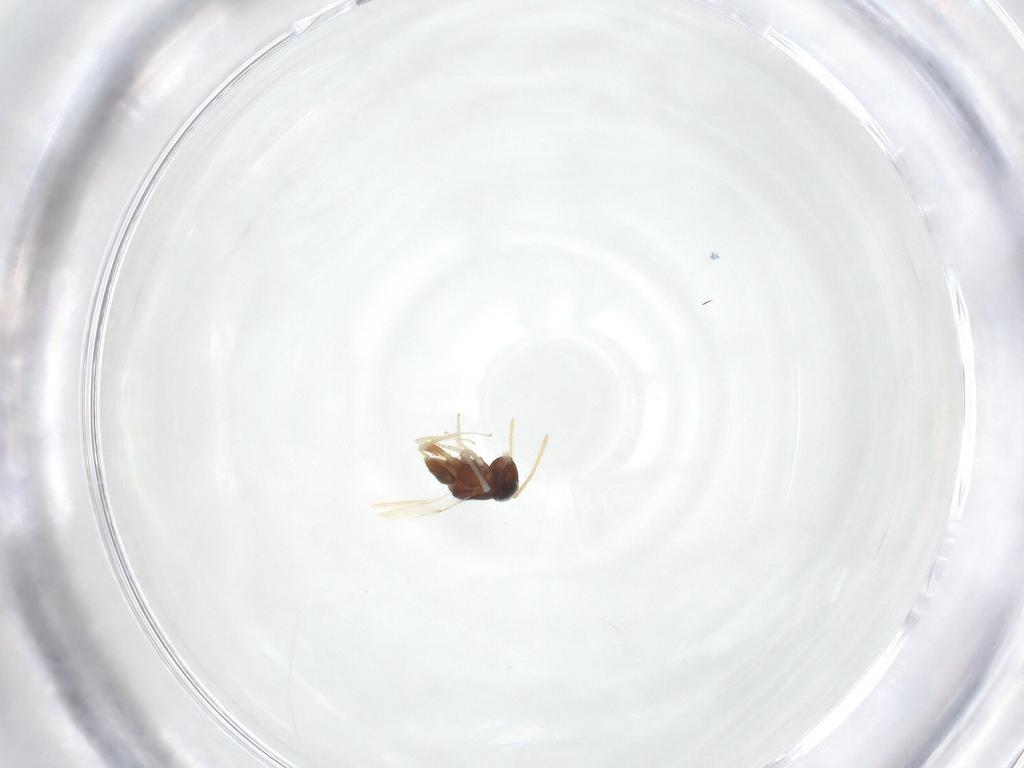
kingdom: Animalia
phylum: Arthropoda
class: Insecta
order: Hymenoptera
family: Encyrtidae
